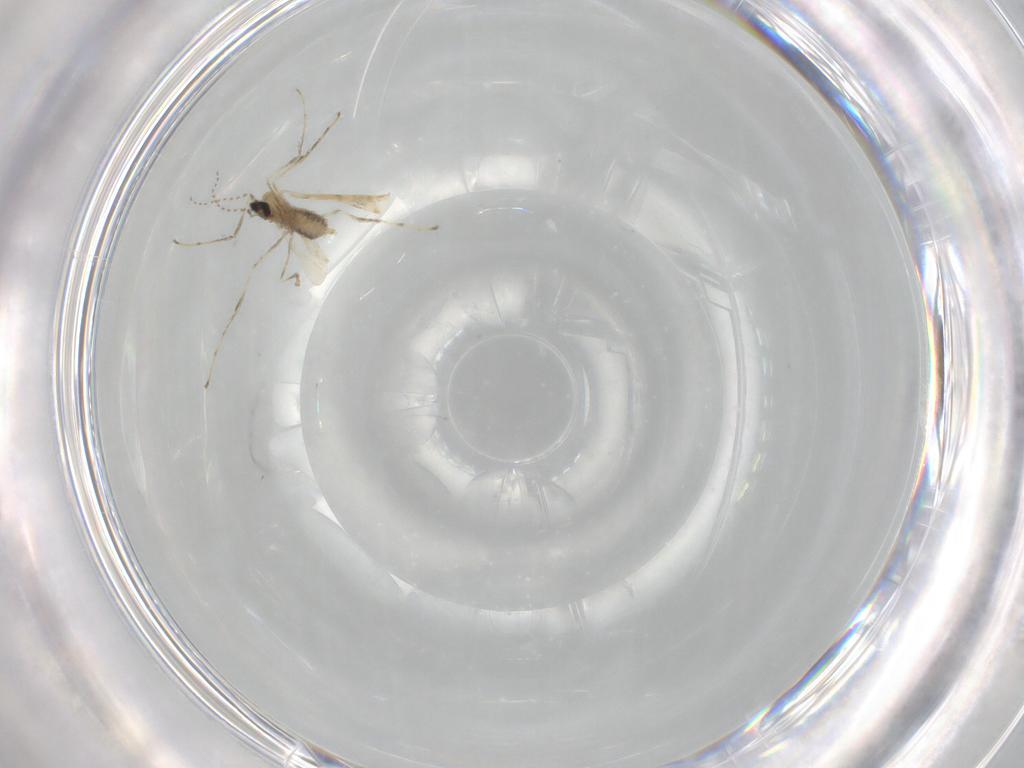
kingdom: Animalia
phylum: Arthropoda
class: Insecta
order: Diptera
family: Cecidomyiidae
